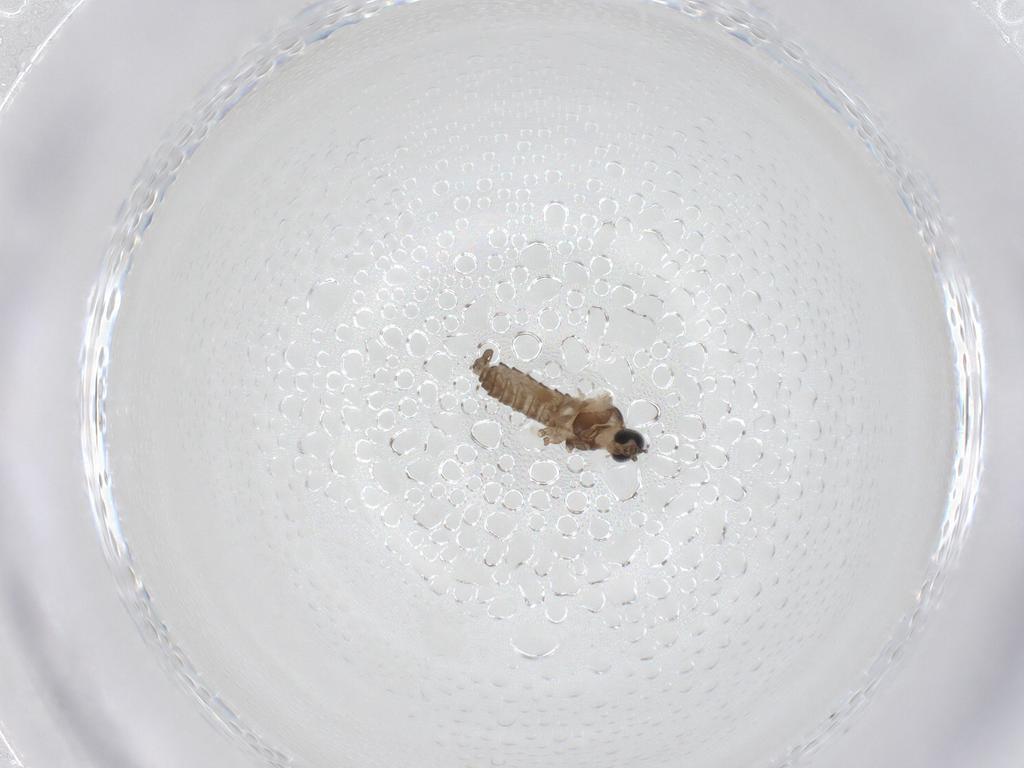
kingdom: Animalia
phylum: Arthropoda
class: Insecta
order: Diptera
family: Cecidomyiidae
